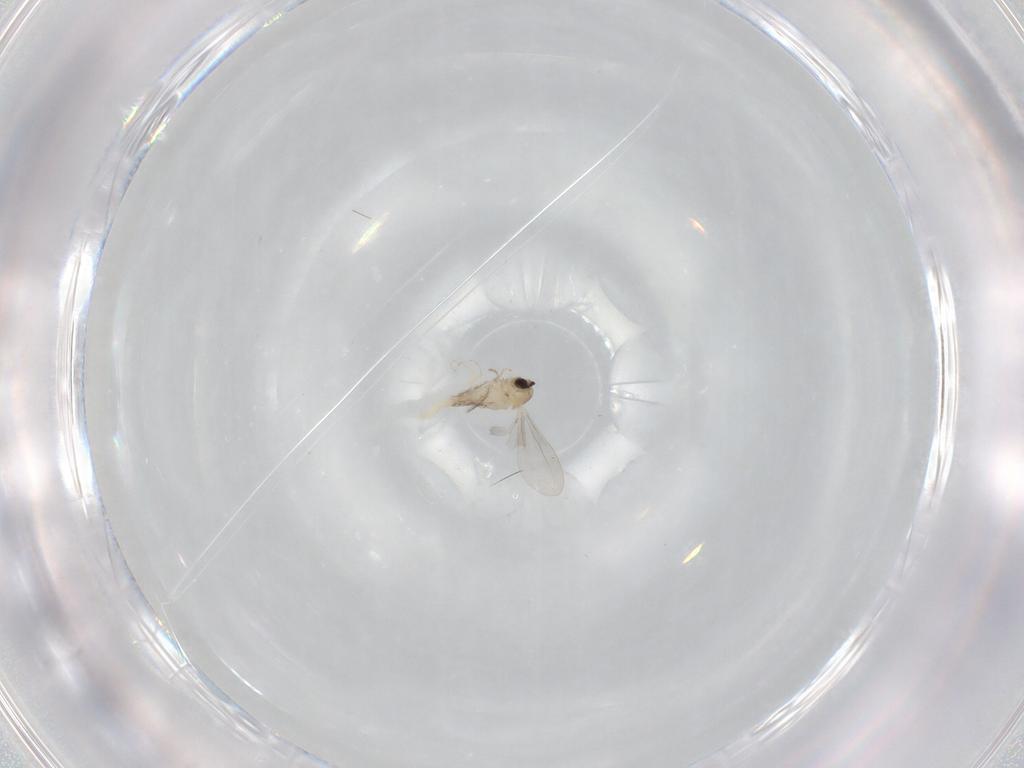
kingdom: Animalia
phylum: Arthropoda
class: Insecta
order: Diptera
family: Cecidomyiidae
